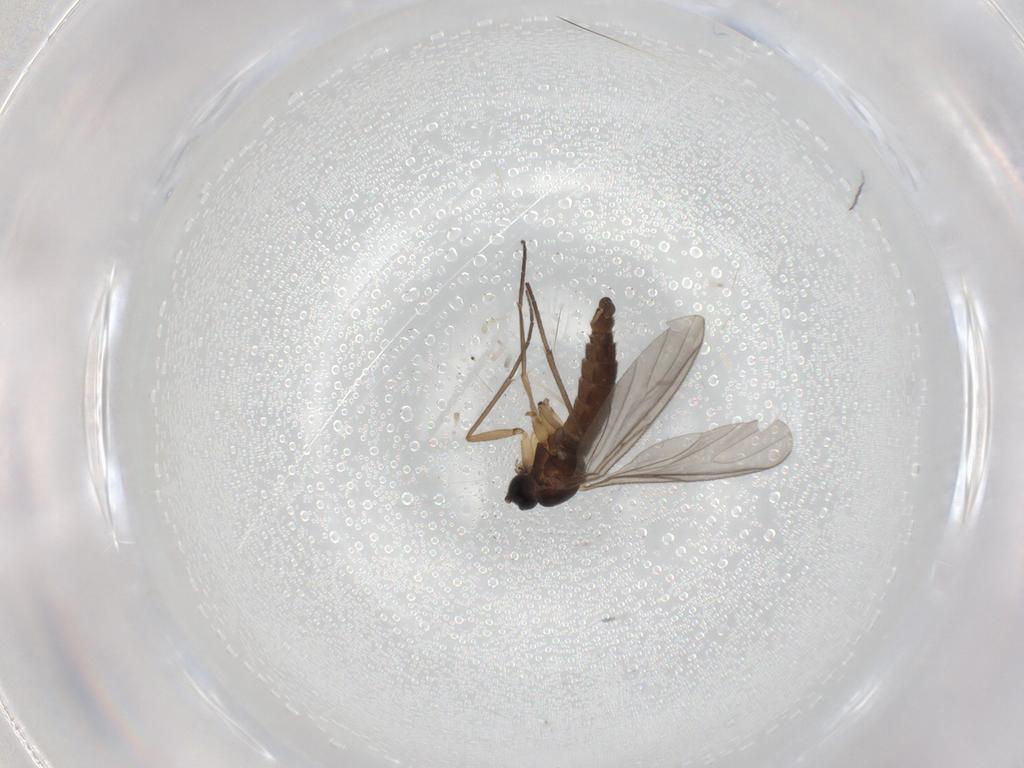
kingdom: Animalia
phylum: Arthropoda
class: Insecta
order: Diptera
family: Sciaridae
